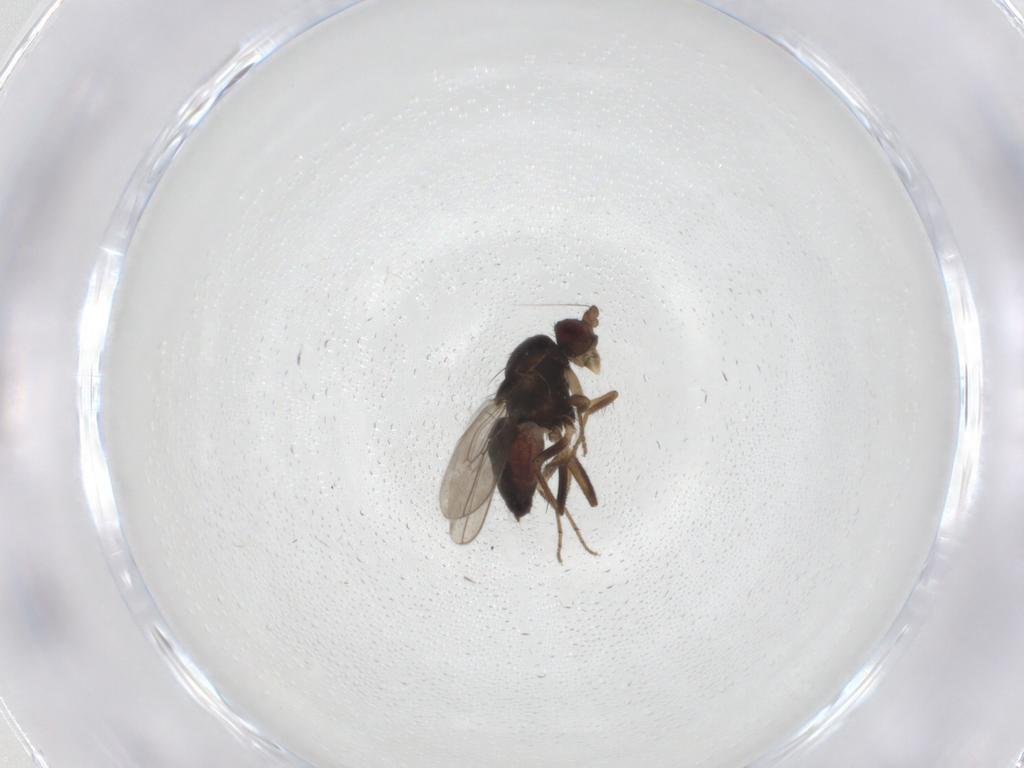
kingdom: Animalia
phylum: Arthropoda
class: Insecta
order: Diptera
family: Sphaeroceridae
